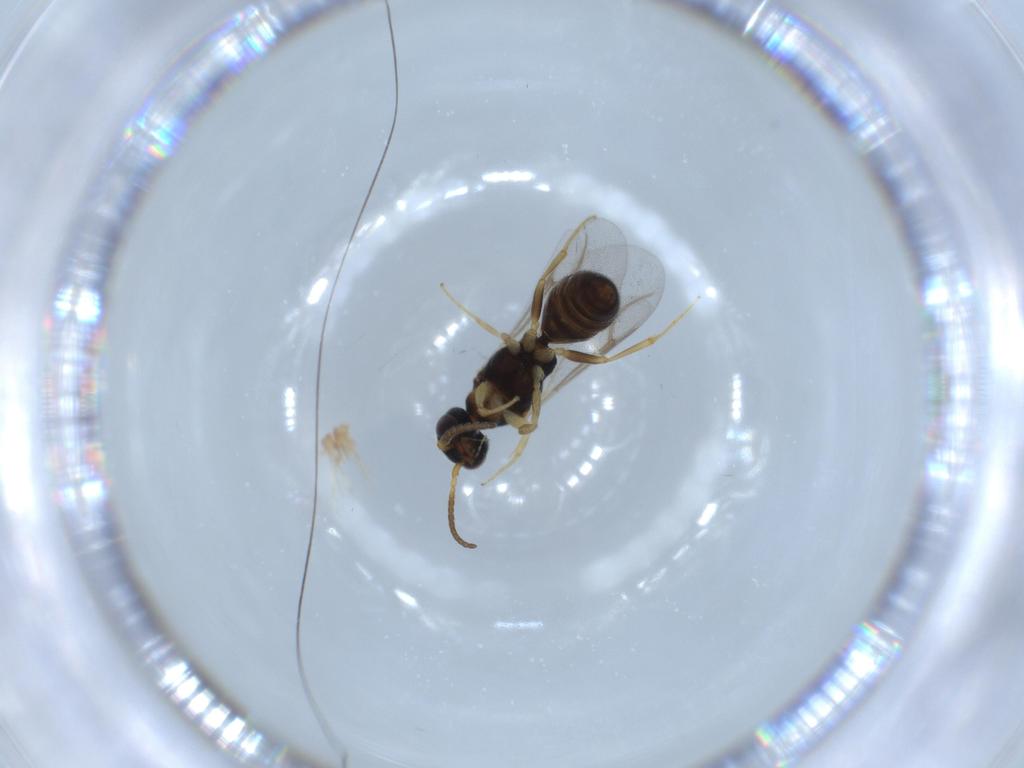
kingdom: Animalia
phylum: Arthropoda
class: Insecta
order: Hymenoptera
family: Bethylidae
